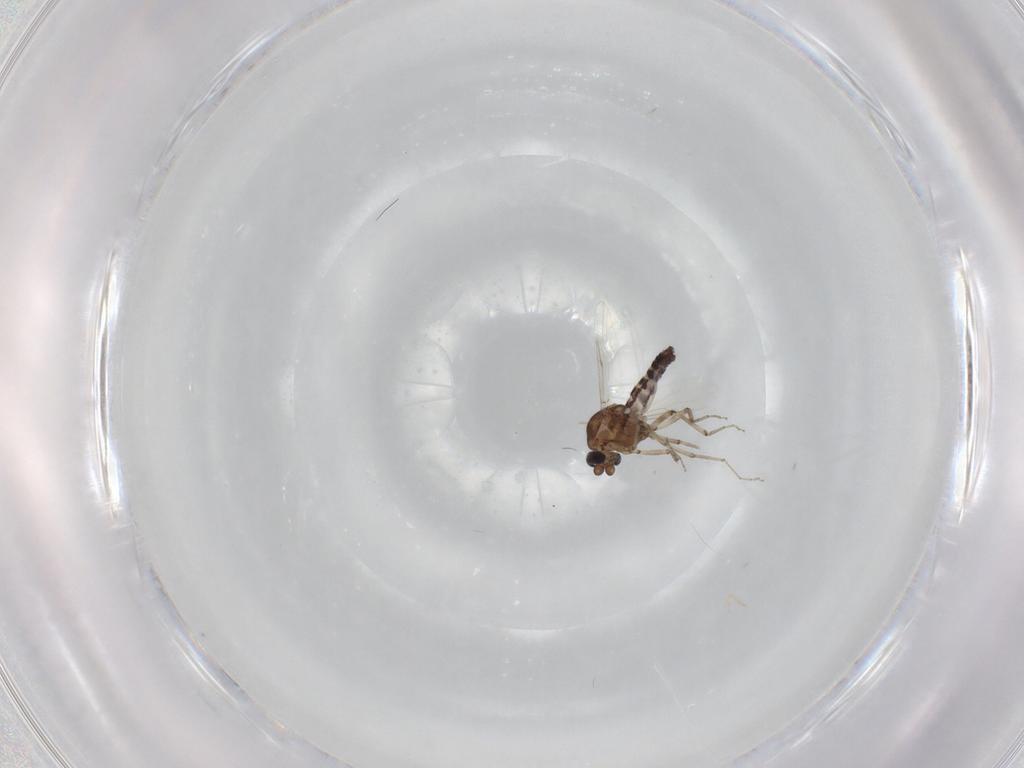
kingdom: Animalia
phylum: Arthropoda
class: Insecta
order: Diptera
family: Ceratopogonidae
